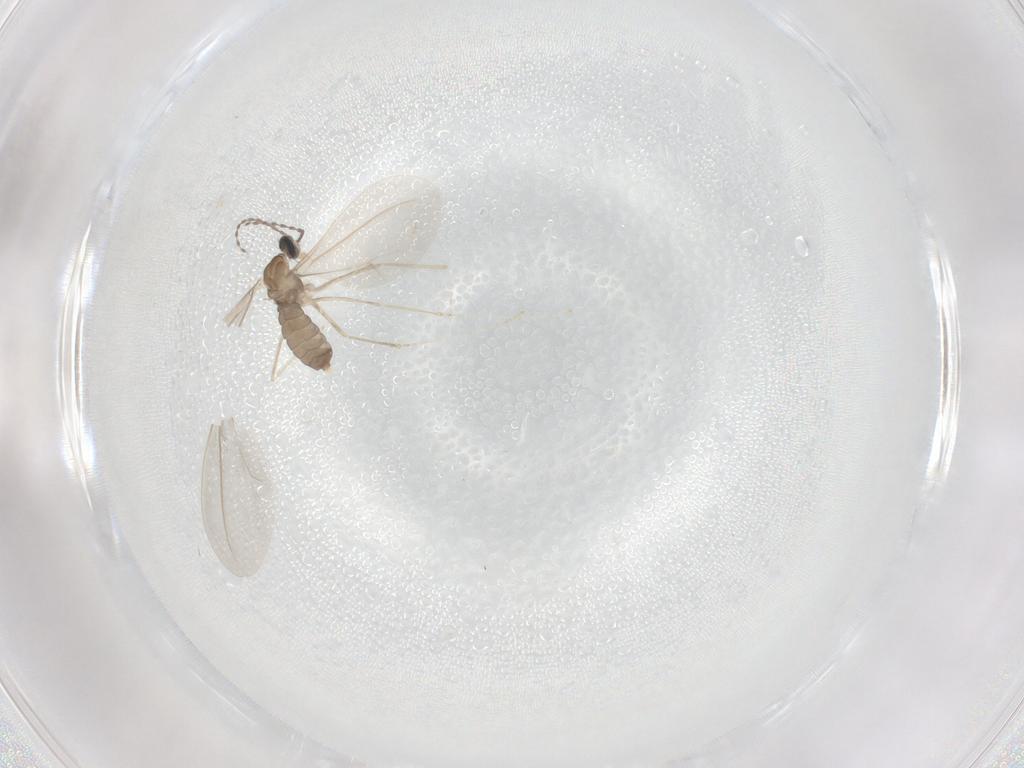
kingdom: Animalia
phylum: Arthropoda
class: Insecta
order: Diptera
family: Cecidomyiidae
